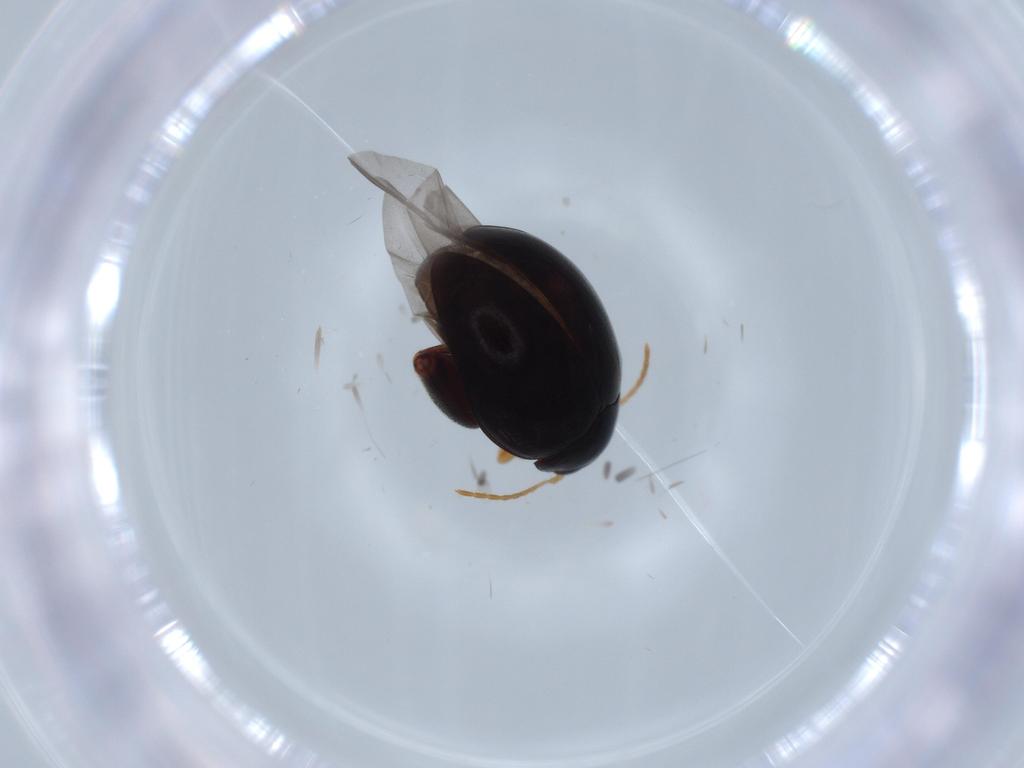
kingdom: Animalia
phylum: Arthropoda
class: Insecta
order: Coleoptera
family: Chrysomelidae
